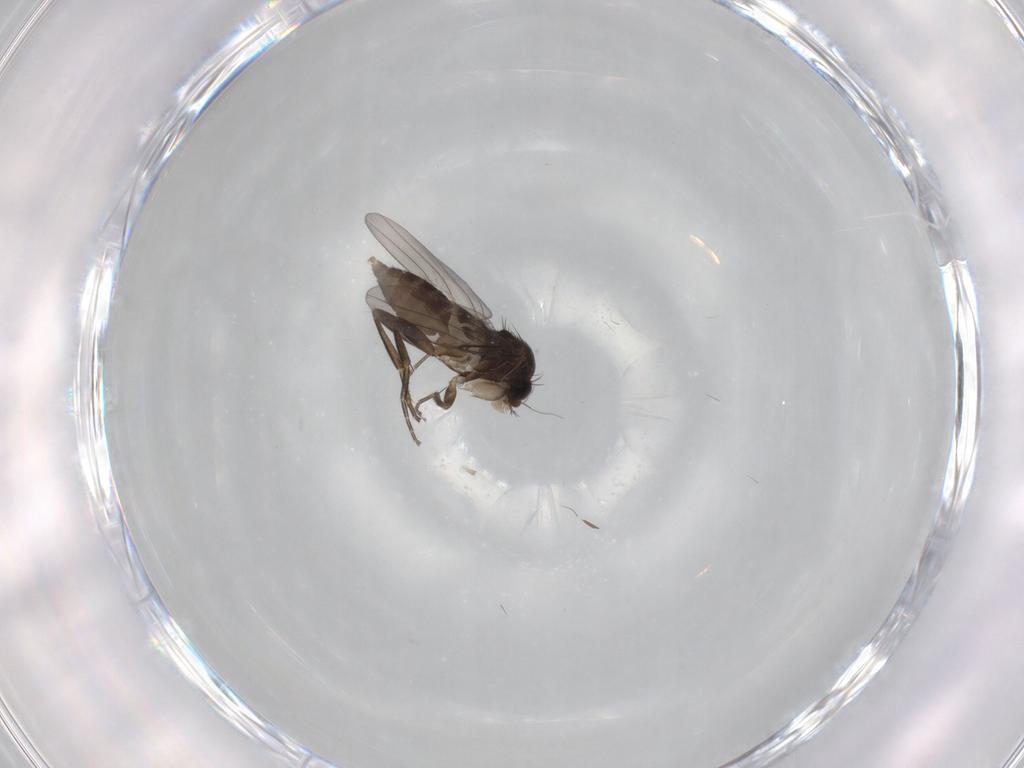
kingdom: Animalia
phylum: Arthropoda
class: Insecta
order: Diptera
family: Phoridae
